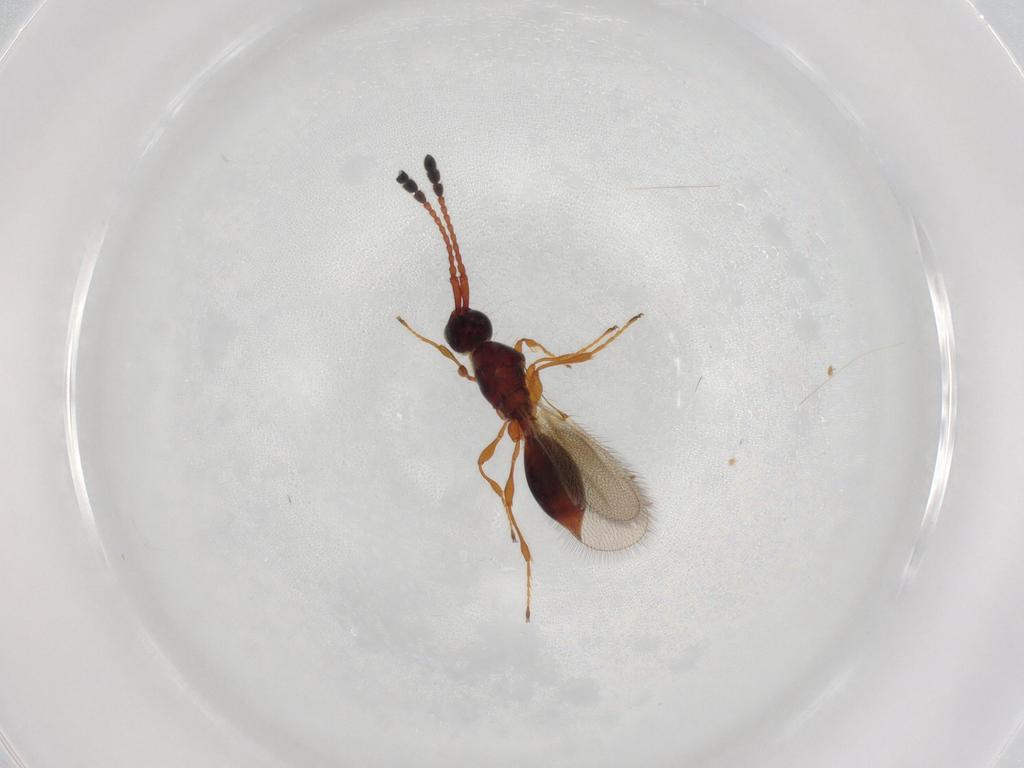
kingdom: Animalia
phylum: Arthropoda
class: Insecta
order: Hymenoptera
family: Diapriidae
